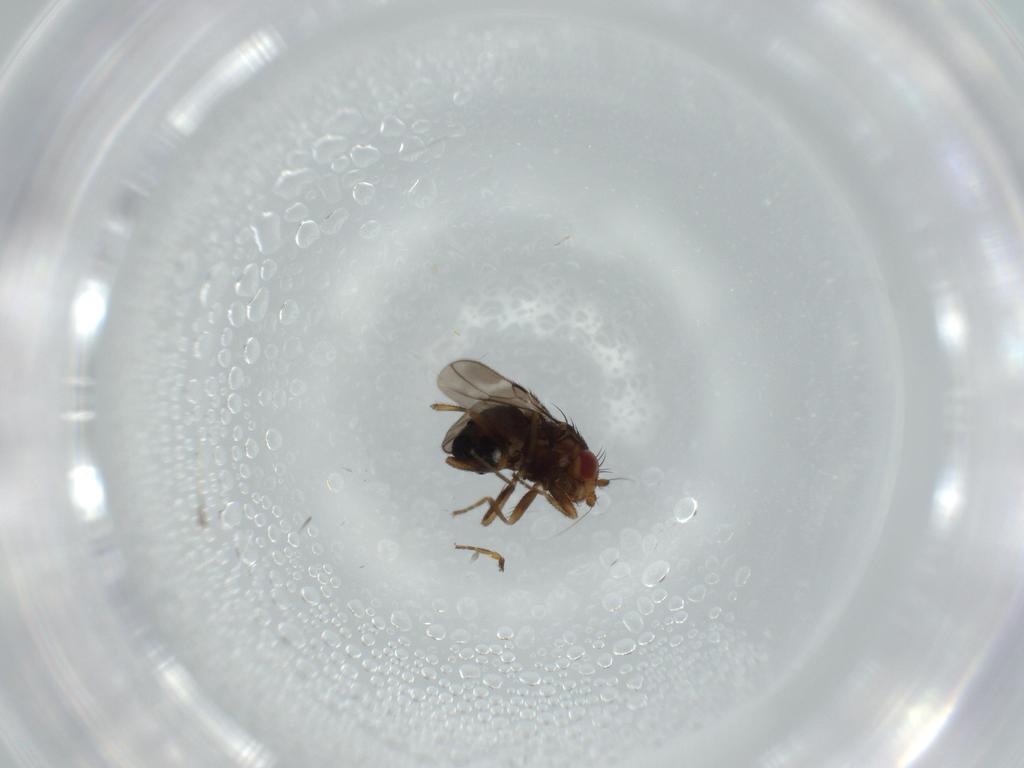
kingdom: Animalia
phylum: Arthropoda
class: Insecta
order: Diptera
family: Sphaeroceridae
